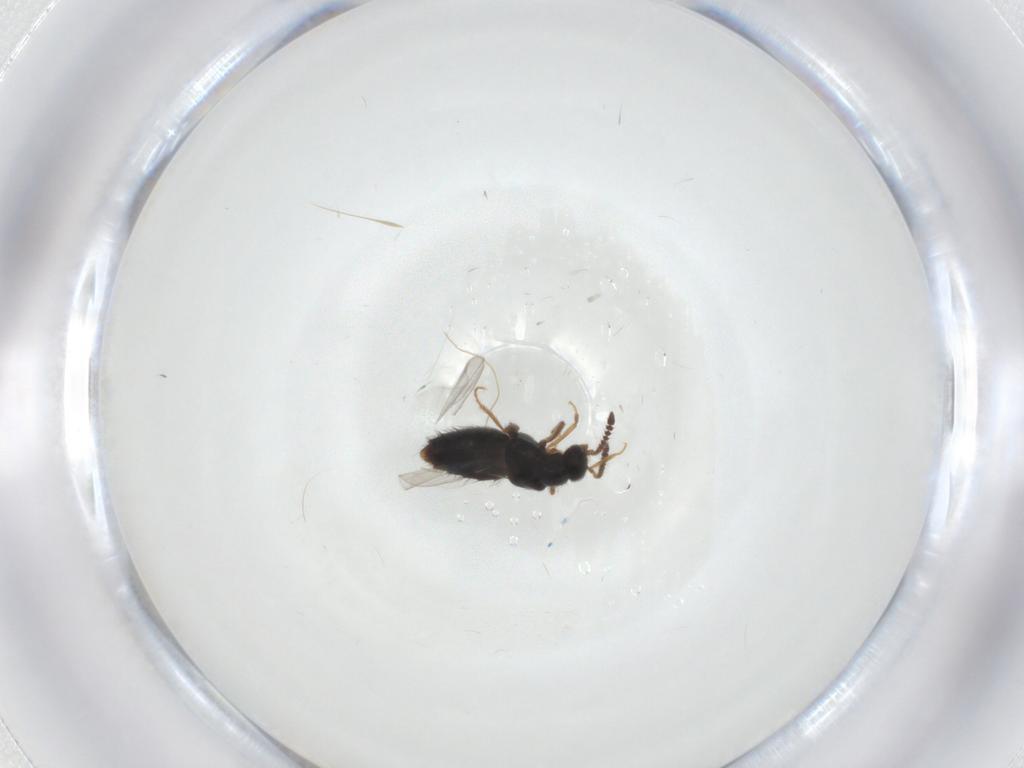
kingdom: Animalia
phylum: Arthropoda
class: Insecta
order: Coleoptera
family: Staphylinidae
